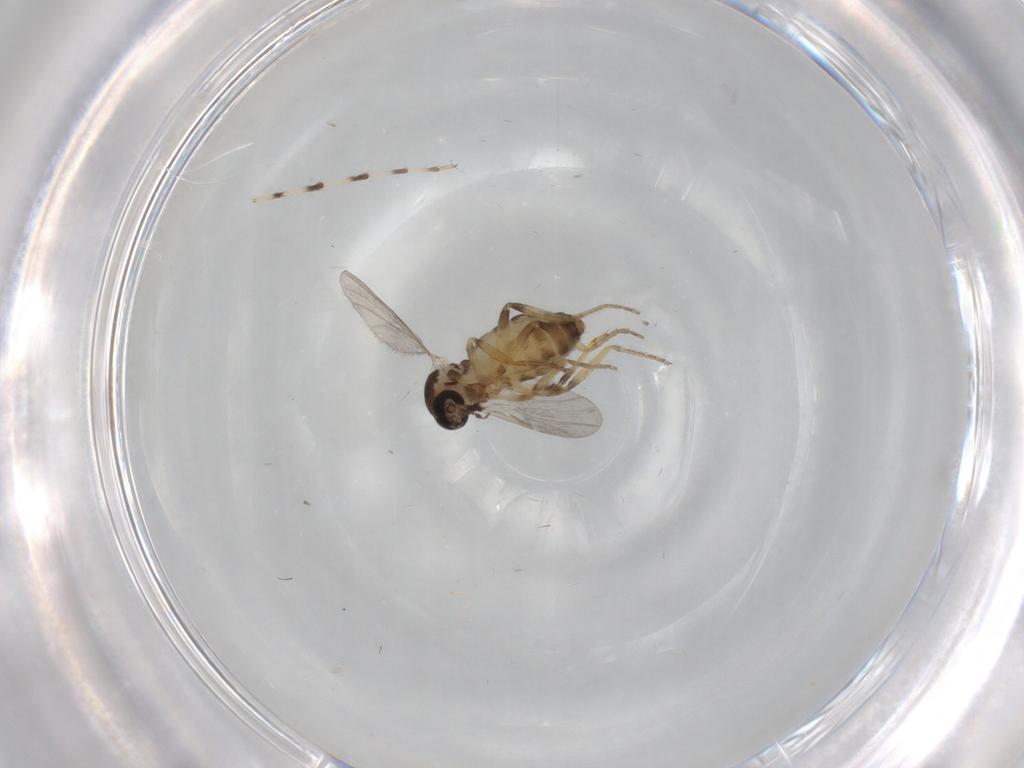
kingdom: Animalia
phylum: Arthropoda
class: Insecta
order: Diptera
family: Ceratopogonidae
